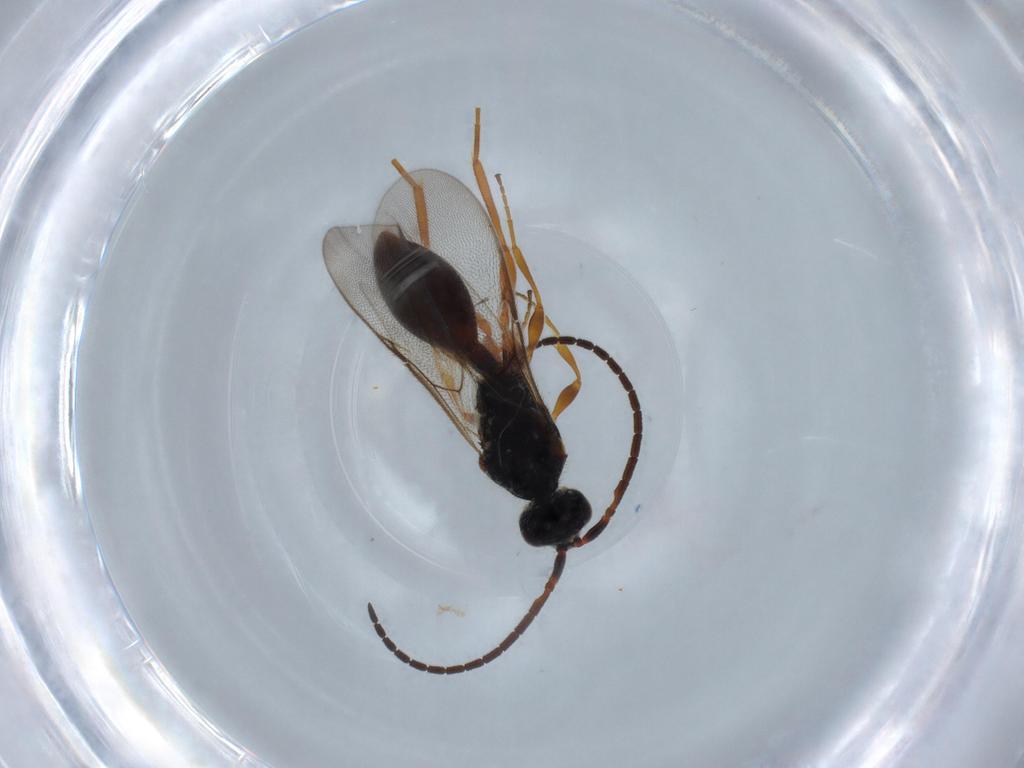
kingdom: Animalia
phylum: Arthropoda
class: Insecta
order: Hymenoptera
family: Diapriidae
